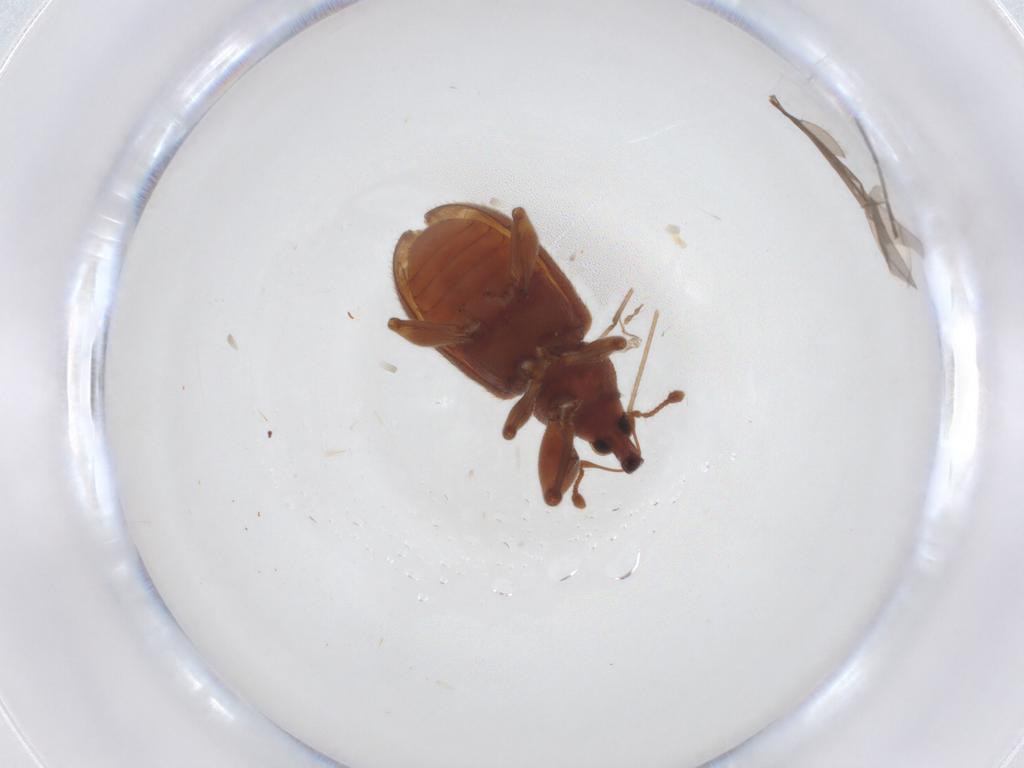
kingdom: Animalia
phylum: Arthropoda
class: Insecta
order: Coleoptera
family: Curculionidae
